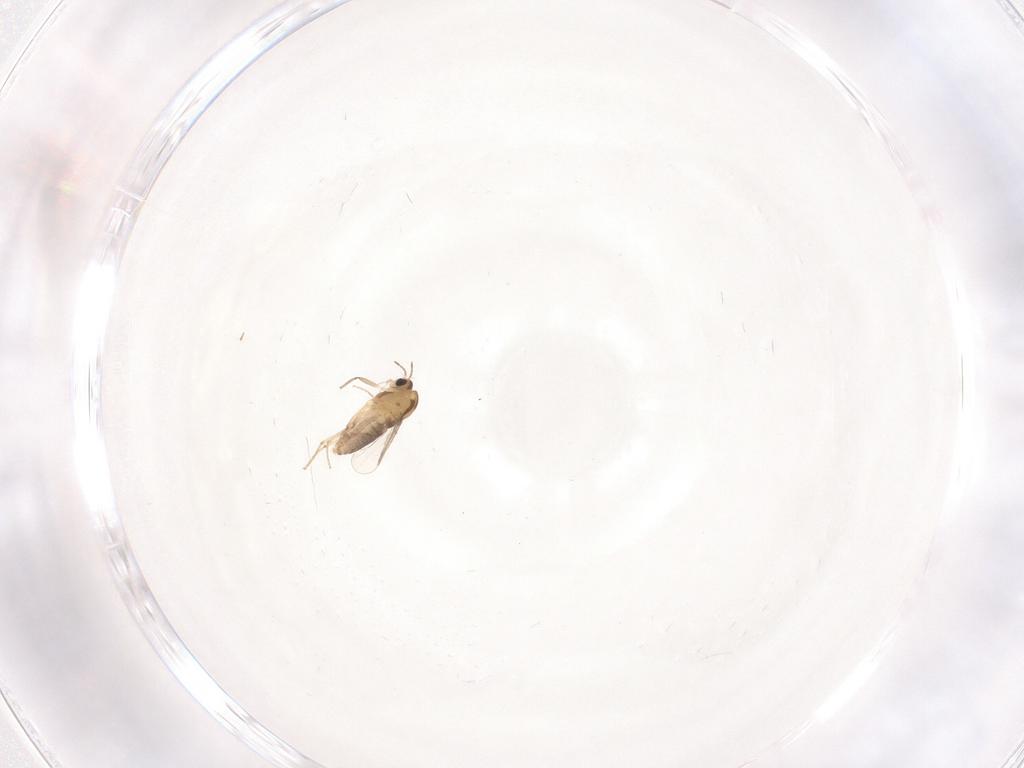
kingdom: Animalia
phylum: Arthropoda
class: Insecta
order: Diptera
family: Chironomidae
